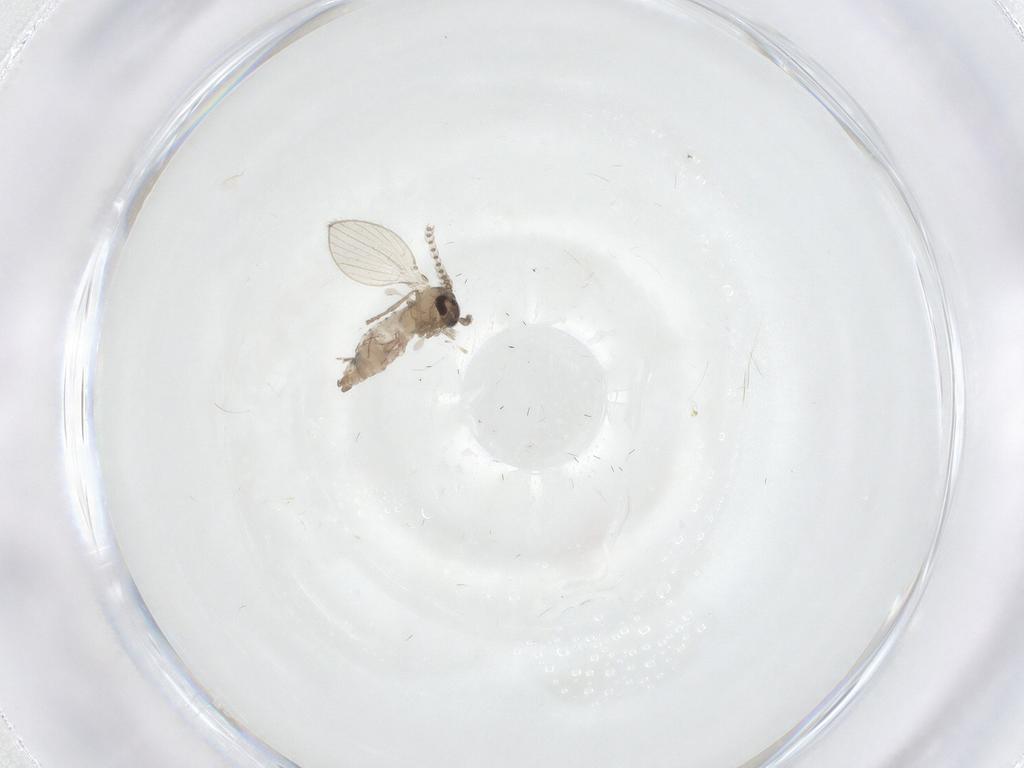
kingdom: Animalia
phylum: Arthropoda
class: Insecta
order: Diptera
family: Psychodidae
